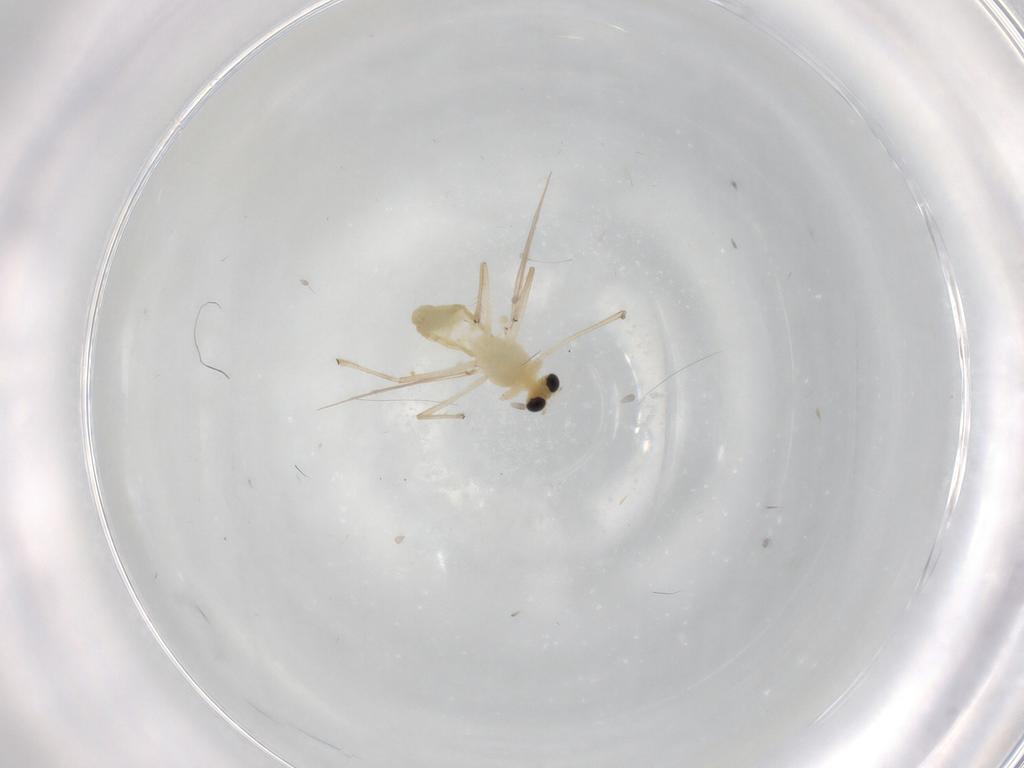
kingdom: Animalia
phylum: Arthropoda
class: Insecta
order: Diptera
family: Chironomidae
